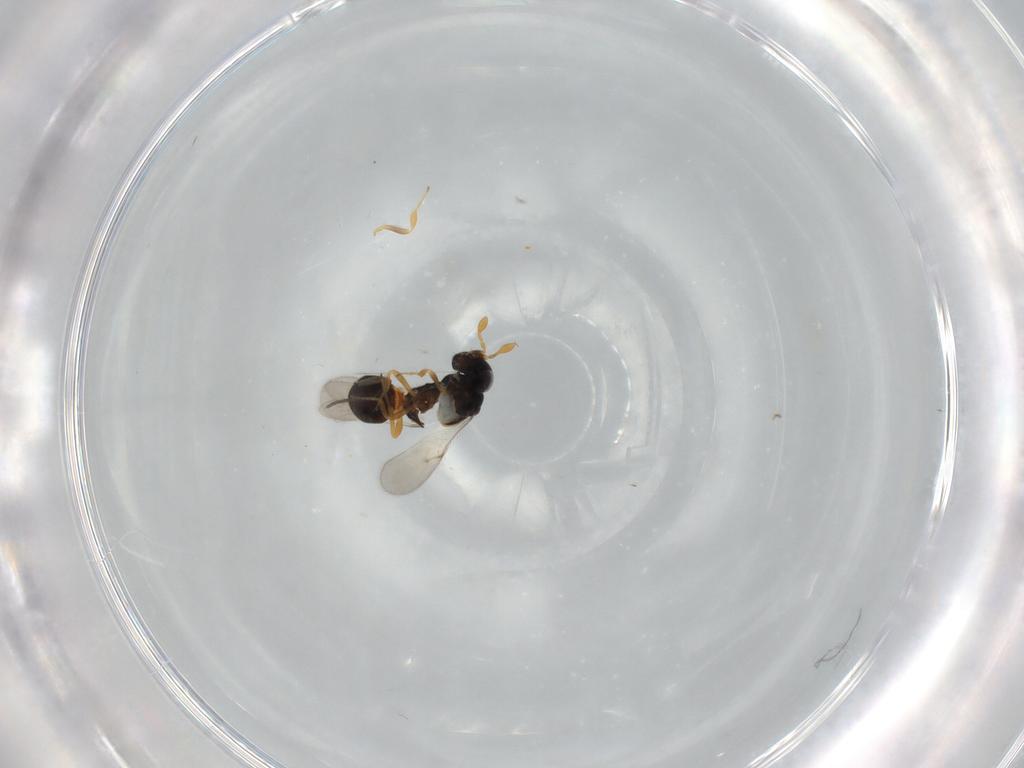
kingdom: Animalia
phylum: Arthropoda
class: Insecta
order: Hymenoptera
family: Scelionidae
